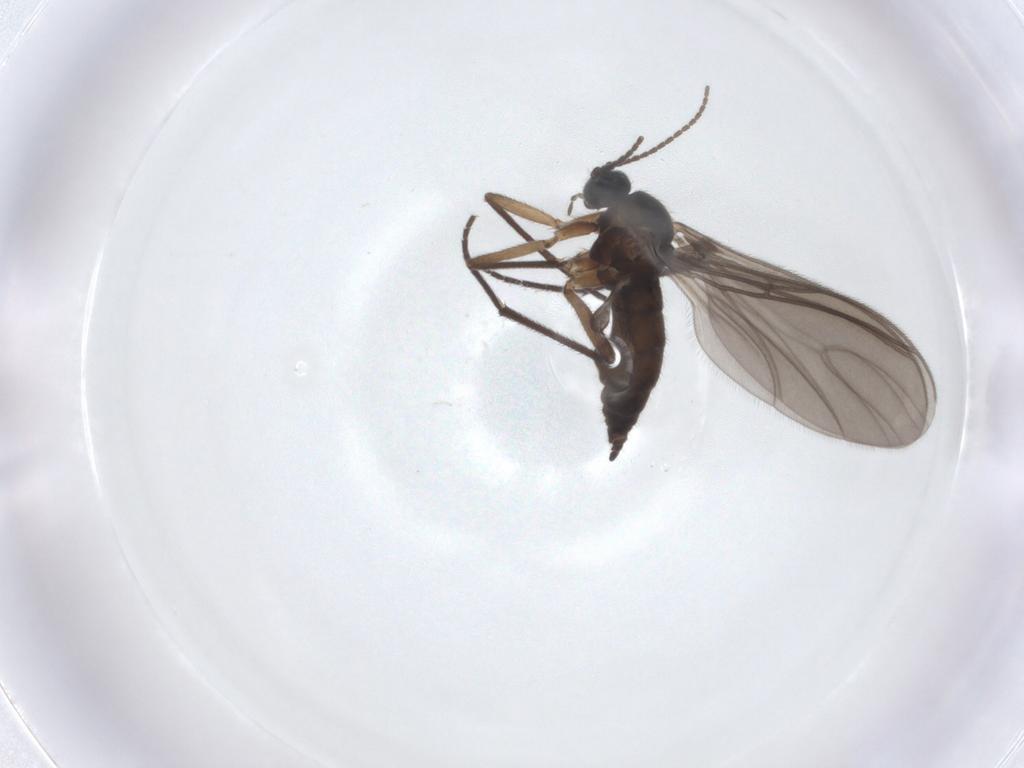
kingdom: Animalia
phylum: Arthropoda
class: Insecta
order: Diptera
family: Sciaridae
